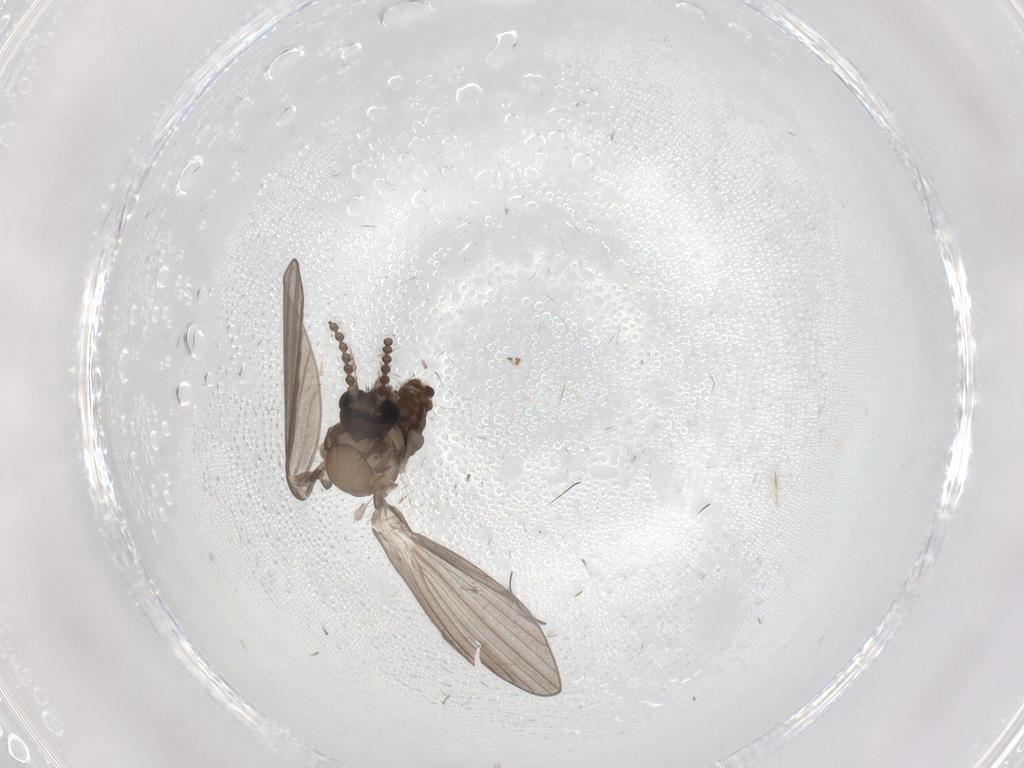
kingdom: Animalia
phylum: Arthropoda
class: Insecta
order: Diptera
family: Psychodidae
